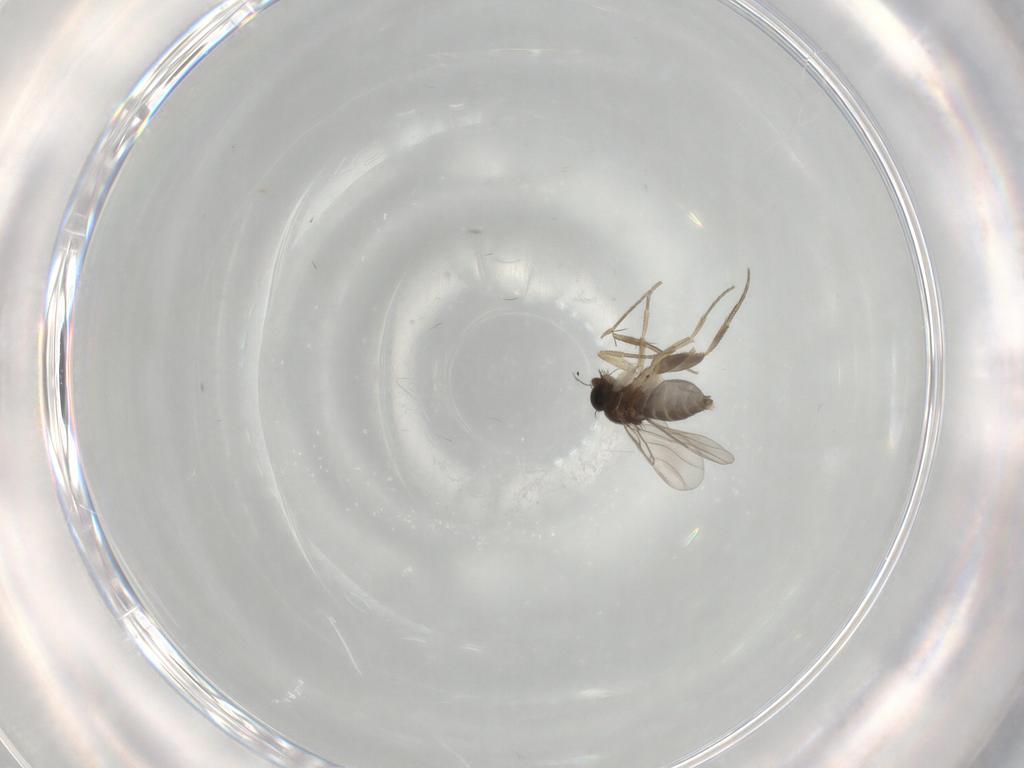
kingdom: Animalia
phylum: Arthropoda
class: Insecta
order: Diptera
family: Phoridae
